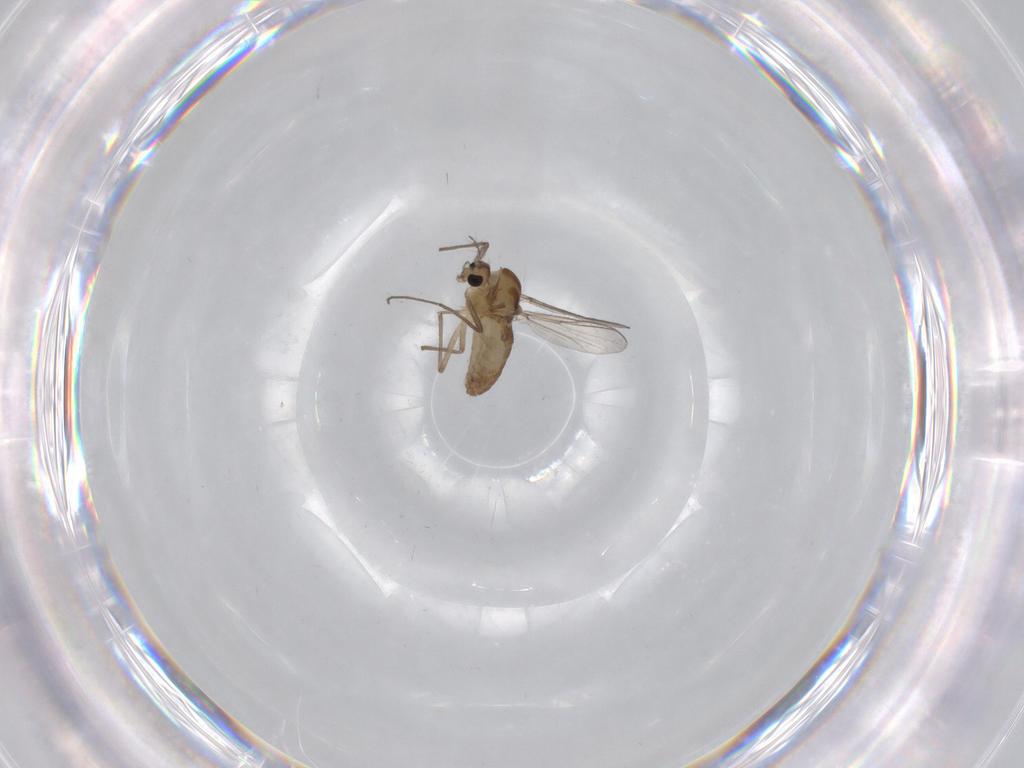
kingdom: Animalia
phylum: Arthropoda
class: Insecta
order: Diptera
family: Chironomidae
